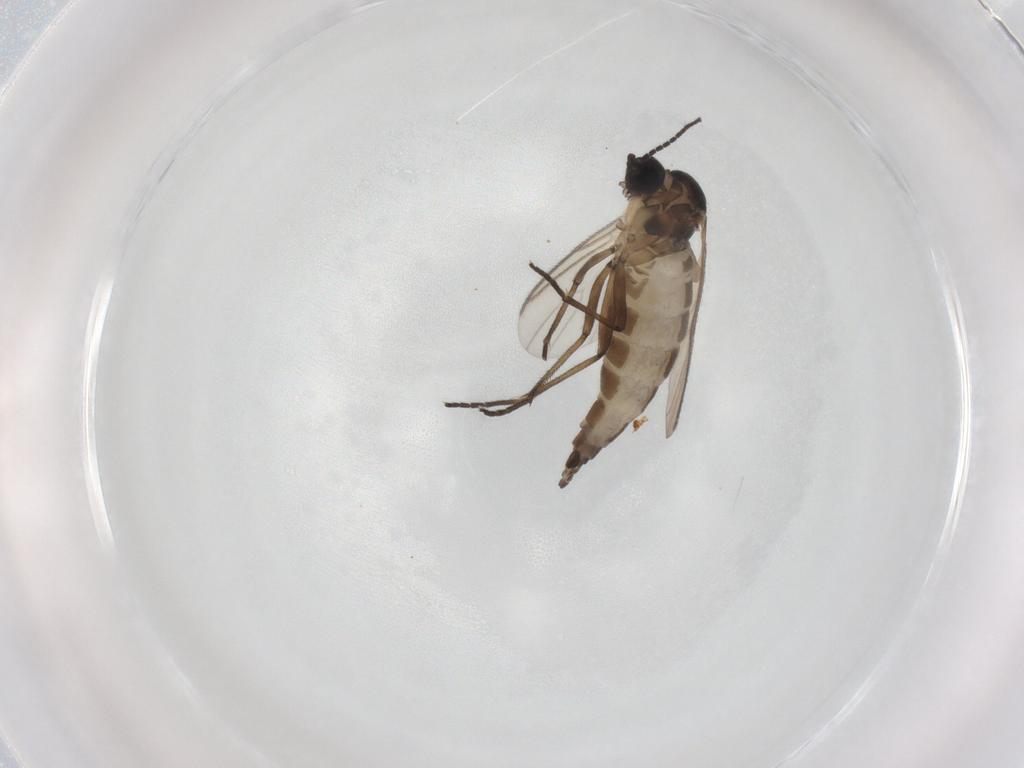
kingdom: Animalia
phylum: Arthropoda
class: Insecta
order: Diptera
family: Sciaridae
